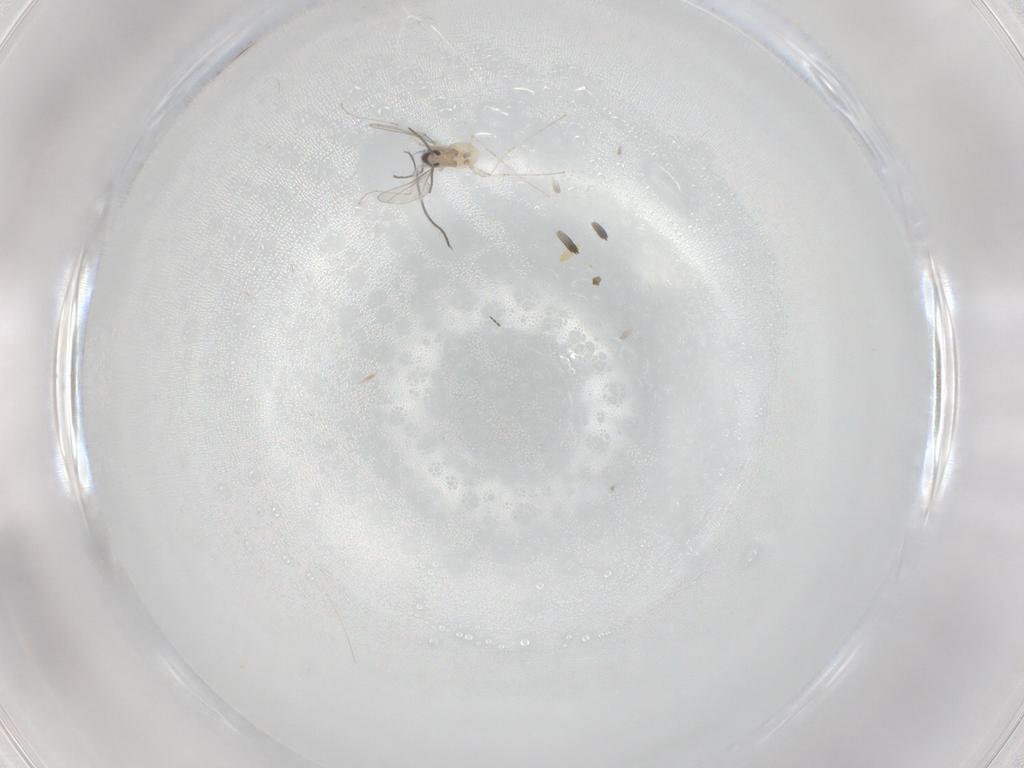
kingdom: Animalia
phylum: Arthropoda
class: Insecta
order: Diptera
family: Cecidomyiidae
